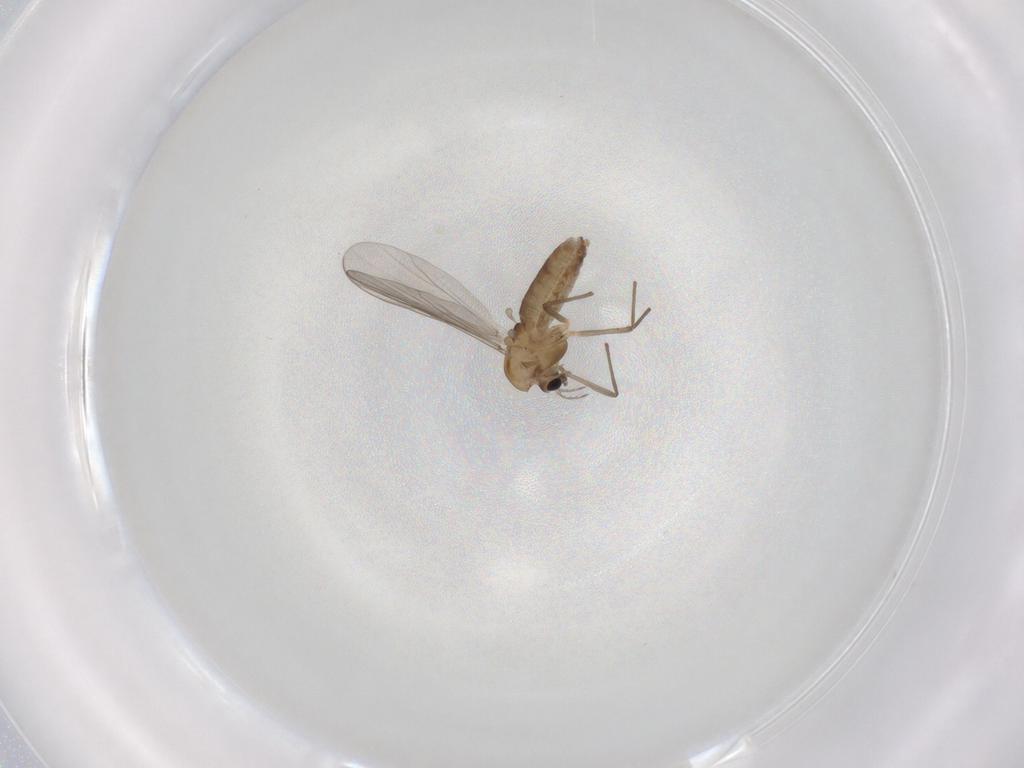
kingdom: Animalia
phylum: Arthropoda
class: Insecta
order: Diptera
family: Chironomidae
